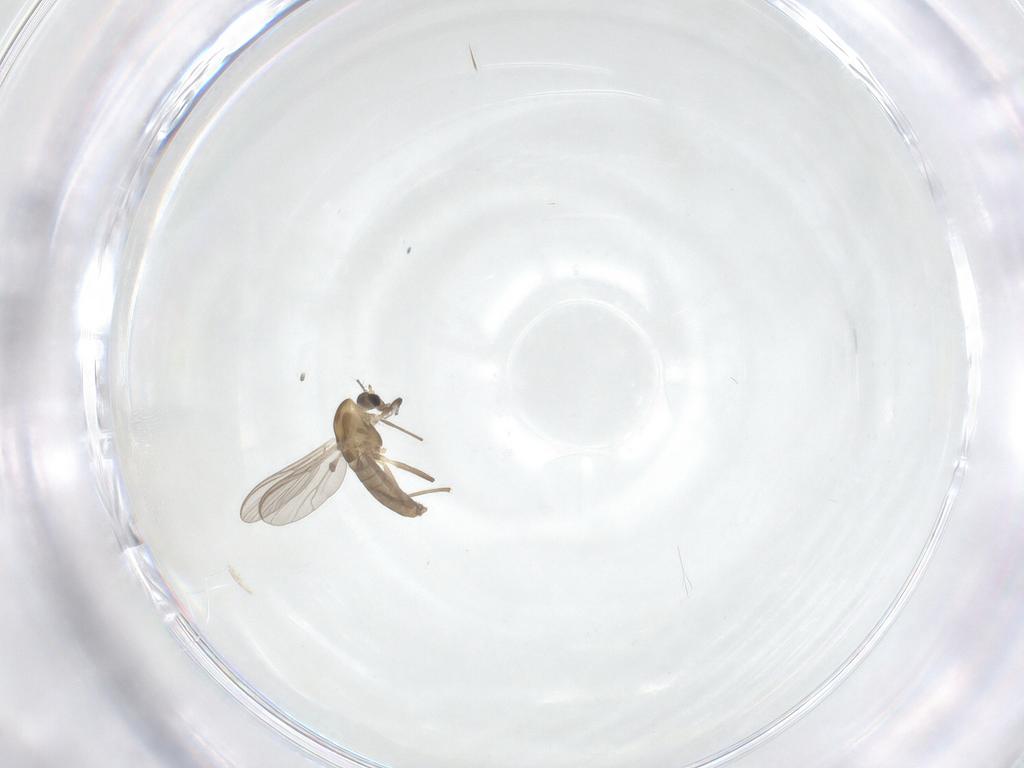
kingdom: Animalia
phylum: Arthropoda
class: Insecta
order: Diptera
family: Chironomidae
